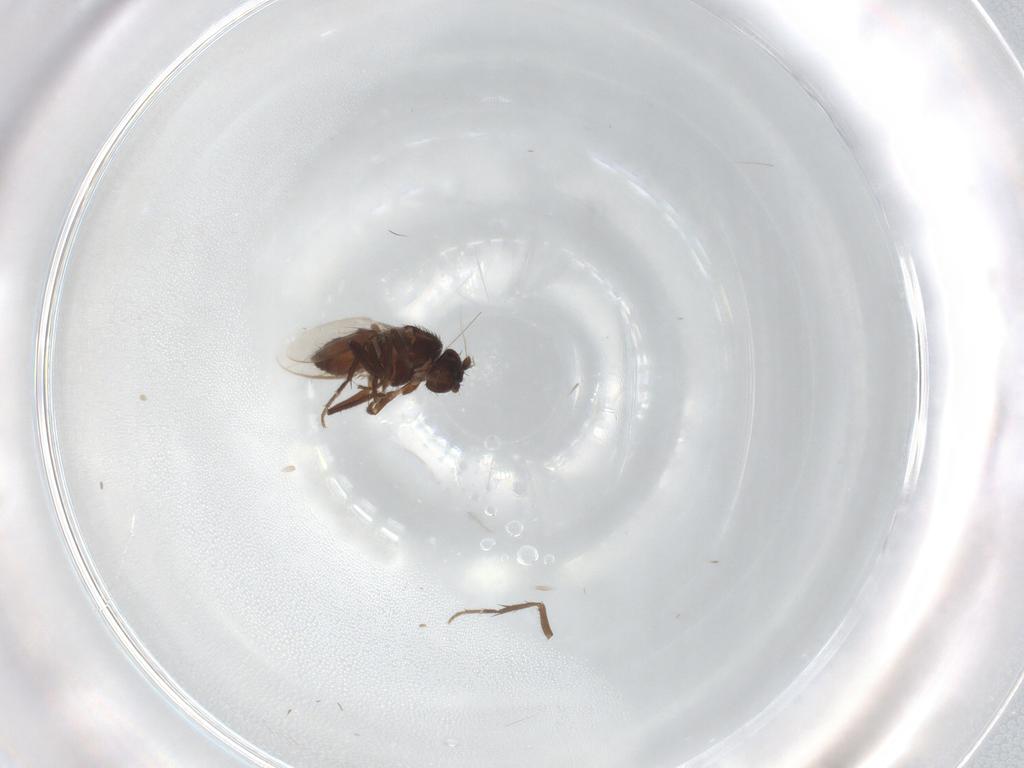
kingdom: Animalia
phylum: Arthropoda
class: Insecta
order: Diptera
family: Sphaeroceridae
